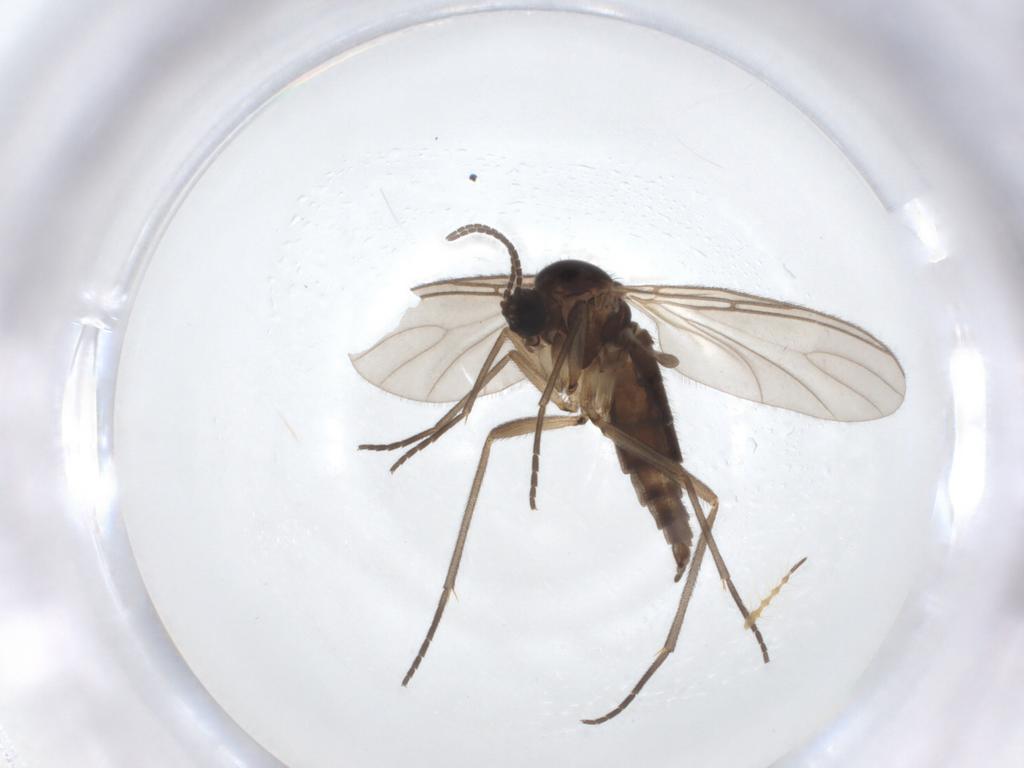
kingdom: Animalia
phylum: Arthropoda
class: Insecta
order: Diptera
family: Sciaridae
